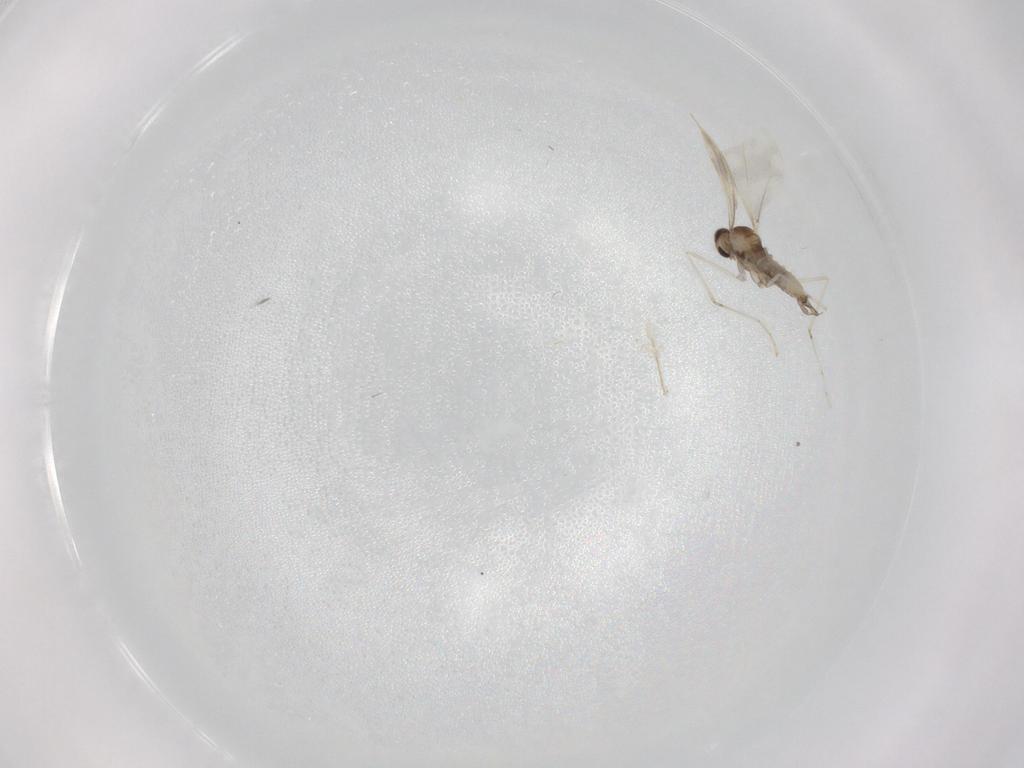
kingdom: Animalia
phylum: Arthropoda
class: Insecta
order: Diptera
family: Cecidomyiidae
